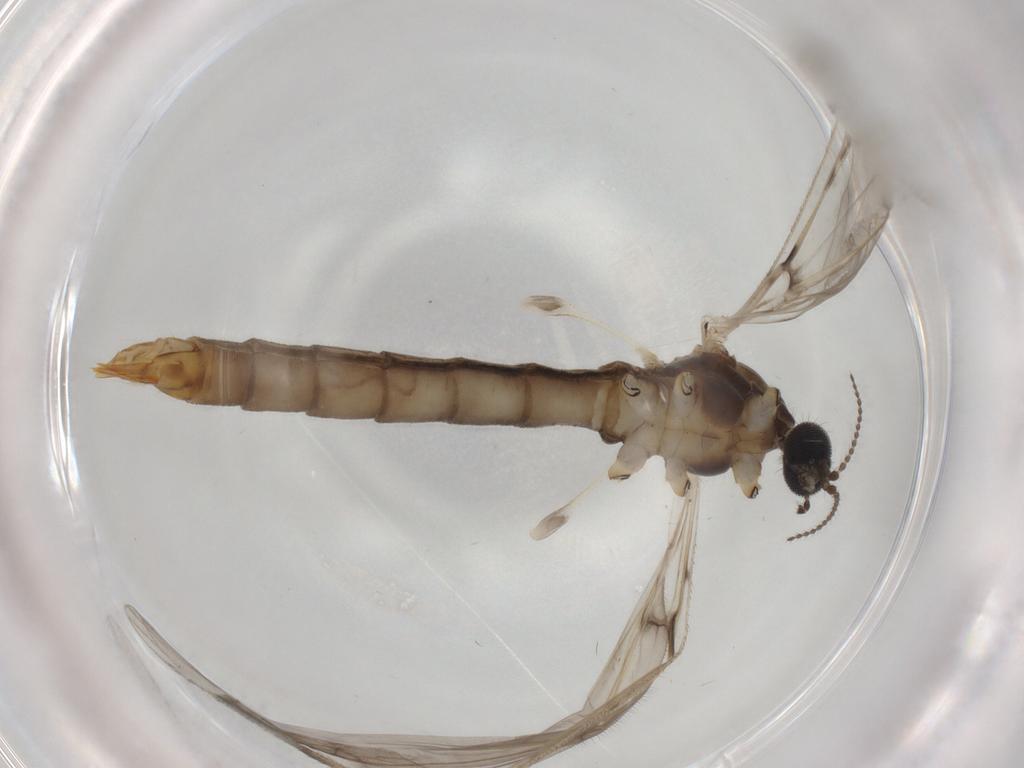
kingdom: Animalia
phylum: Arthropoda
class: Insecta
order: Diptera
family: Limoniidae
